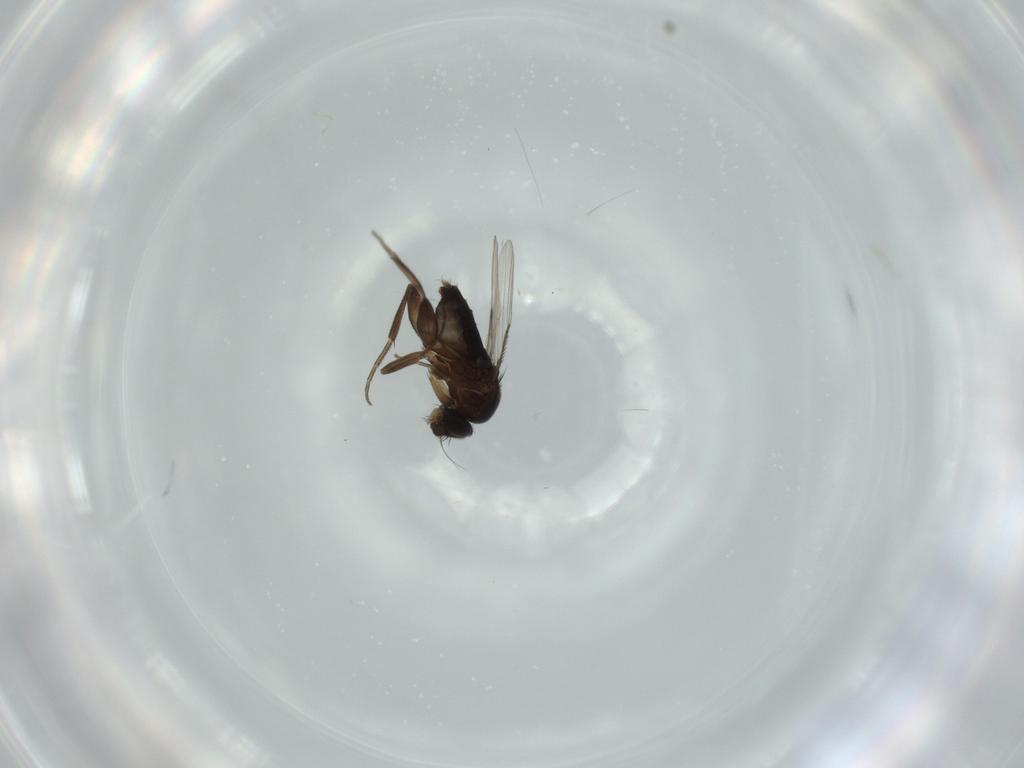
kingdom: Animalia
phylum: Arthropoda
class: Insecta
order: Diptera
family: Phoridae
